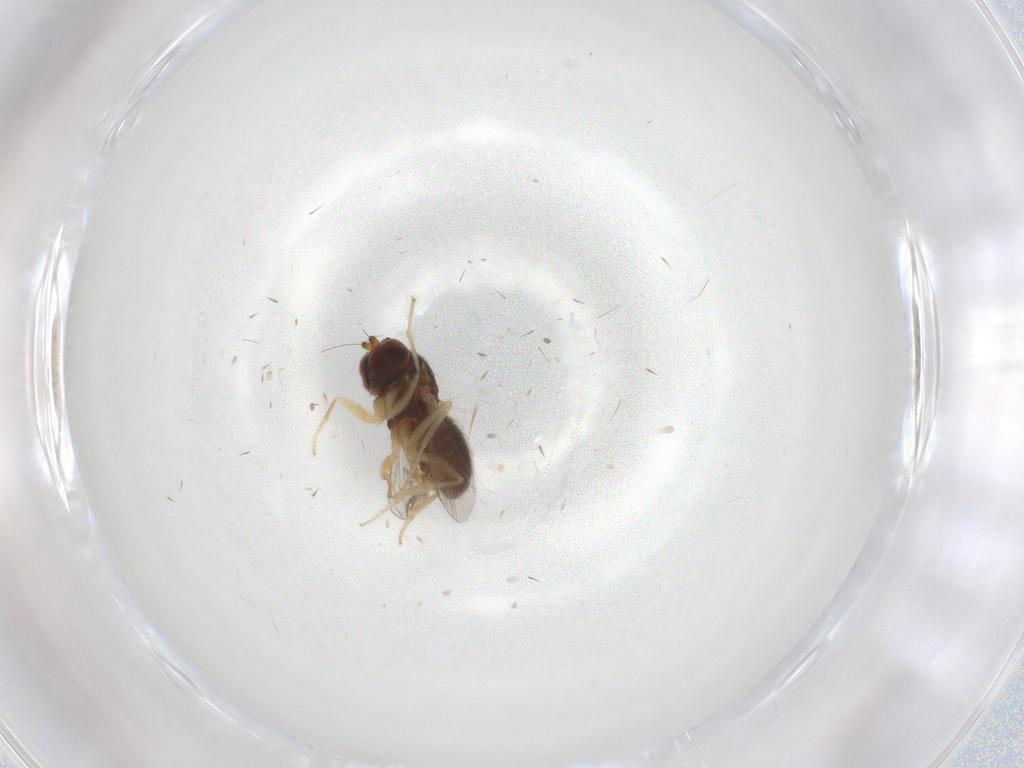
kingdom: Animalia
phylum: Arthropoda
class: Insecta
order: Diptera
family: Dolichopodidae
